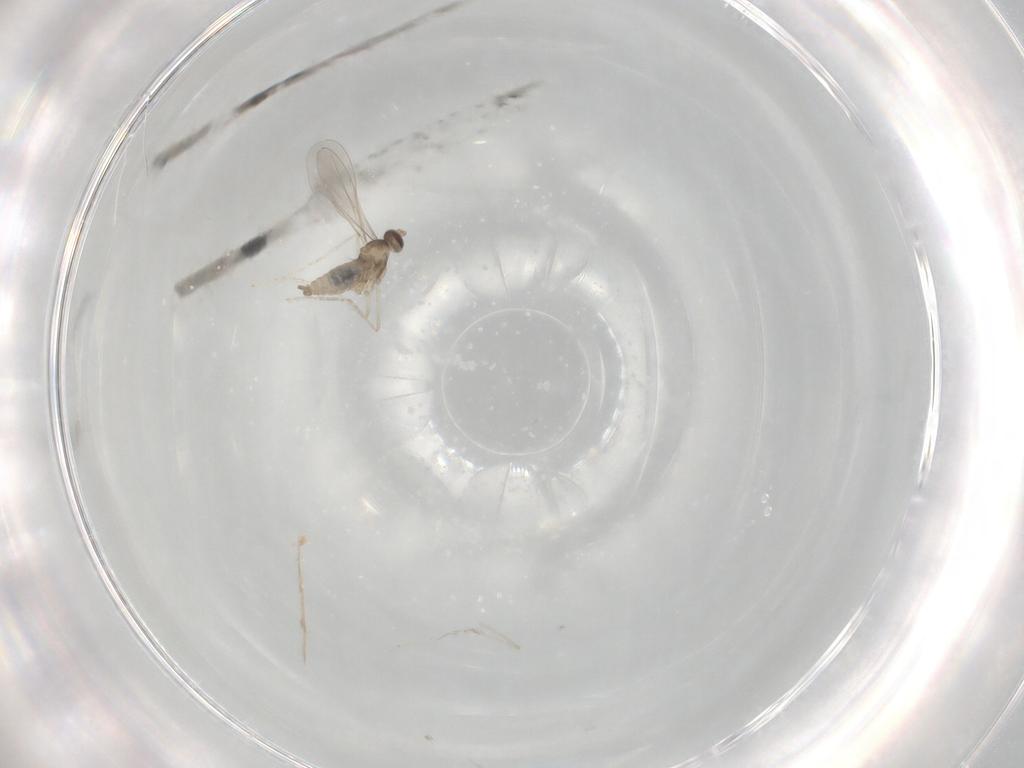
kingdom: Animalia
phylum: Arthropoda
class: Insecta
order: Diptera
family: Cecidomyiidae
